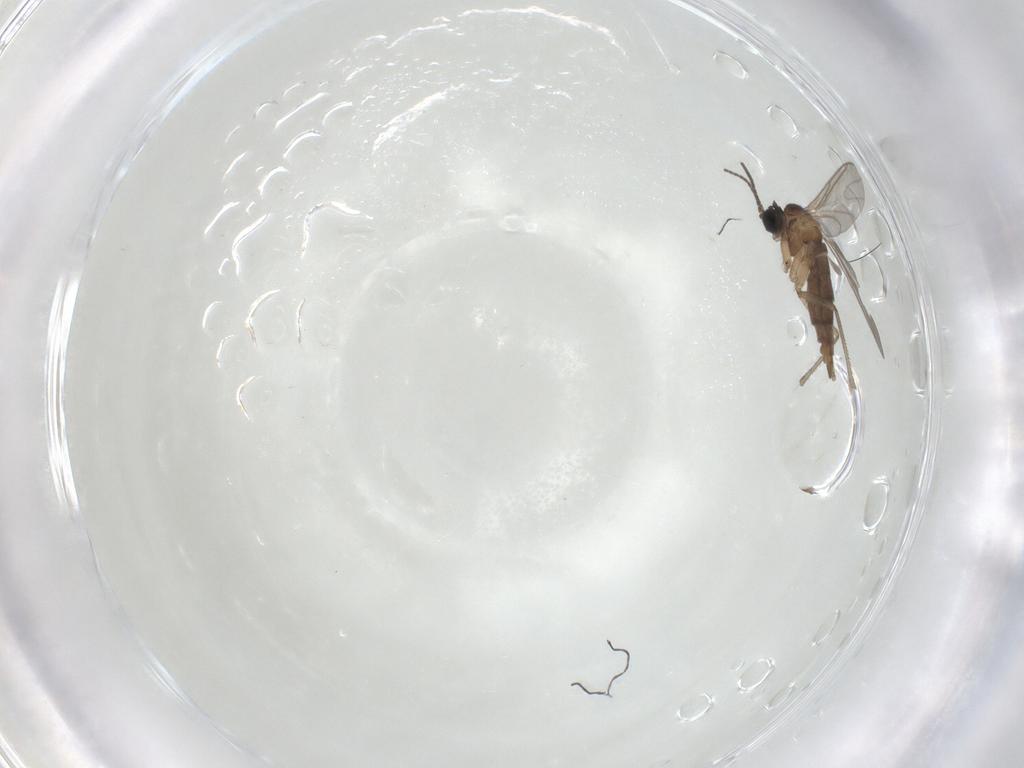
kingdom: Animalia
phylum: Arthropoda
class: Insecta
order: Diptera
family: Sciaridae
